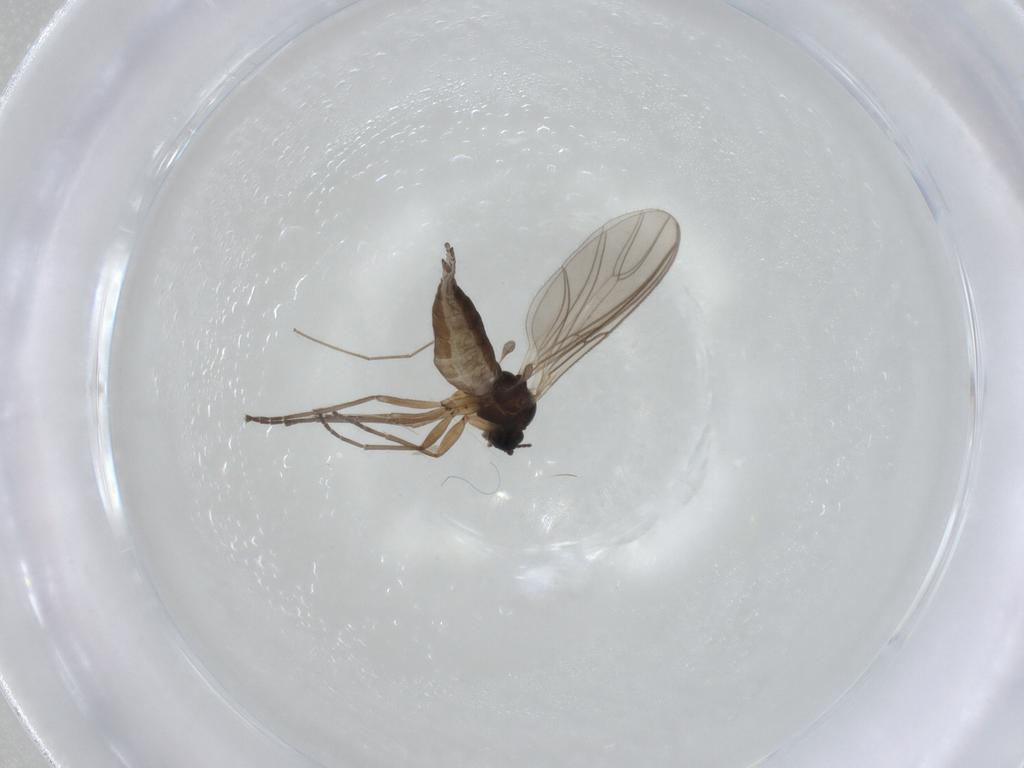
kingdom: Animalia
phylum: Arthropoda
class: Insecta
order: Diptera
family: Sciaridae
